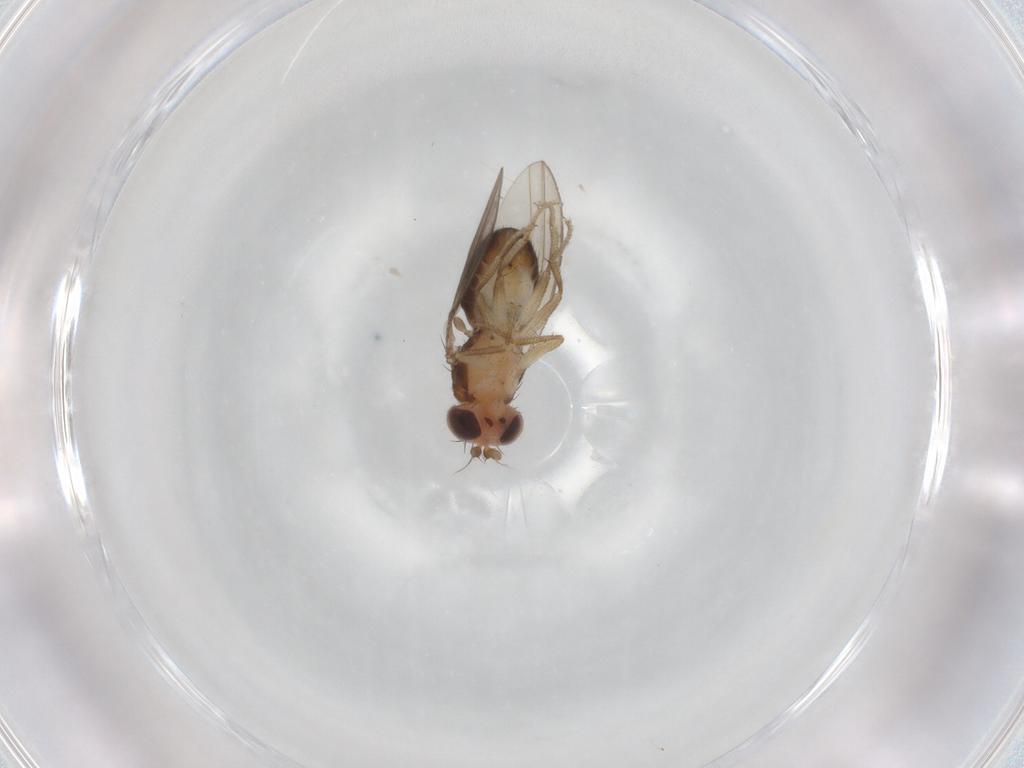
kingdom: Animalia
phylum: Arthropoda
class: Insecta
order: Diptera
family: Drosophilidae
